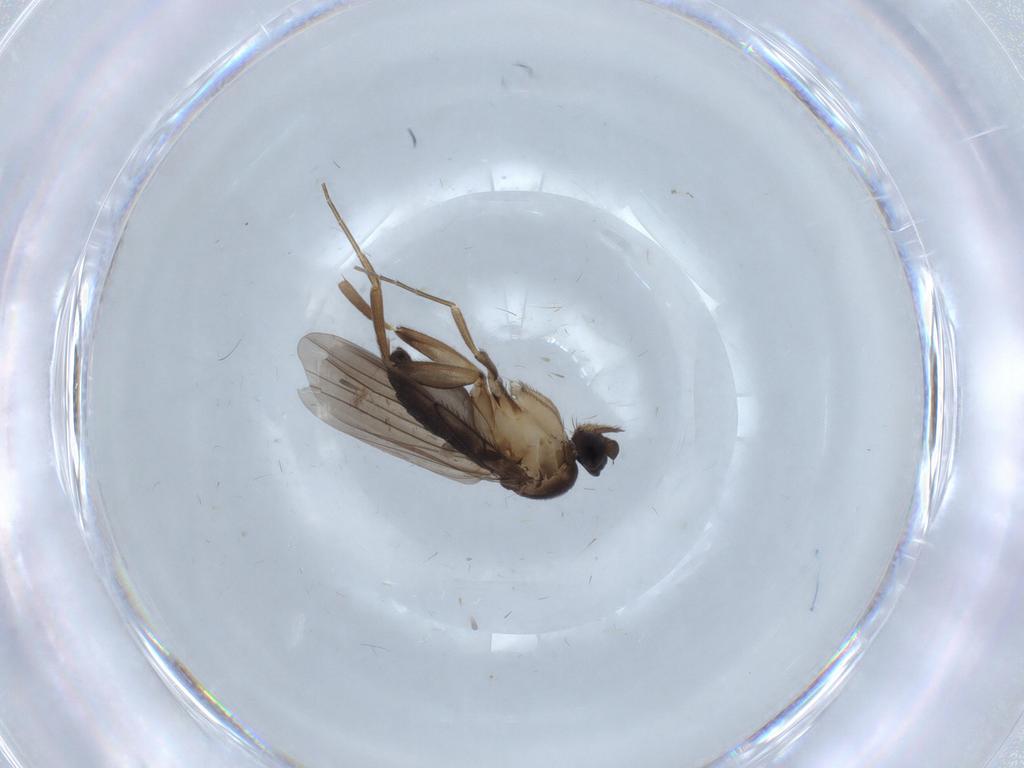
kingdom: Animalia
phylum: Arthropoda
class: Insecta
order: Diptera
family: Phoridae
